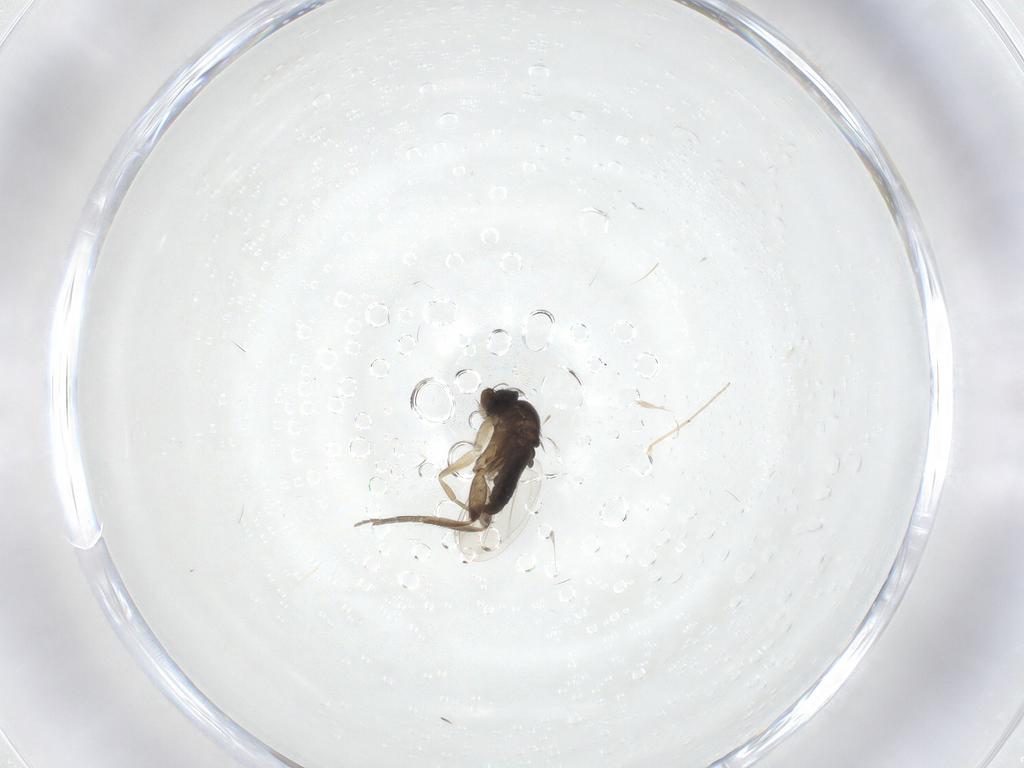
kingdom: Animalia
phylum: Arthropoda
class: Insecta
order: Diptera
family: Phoridae
